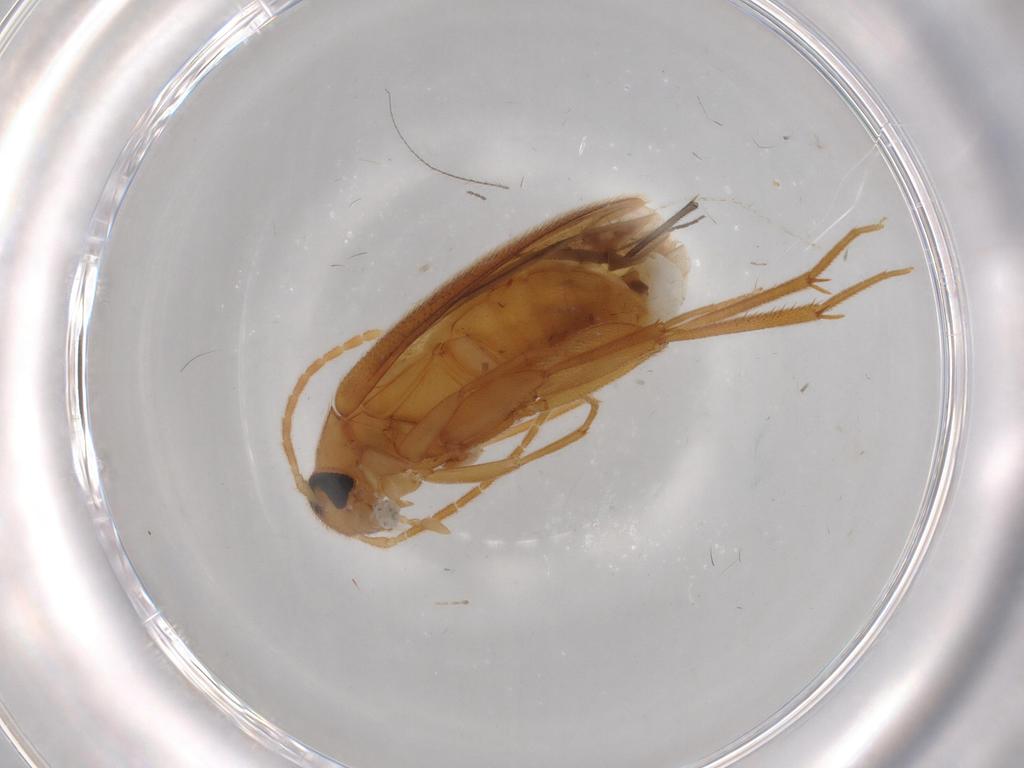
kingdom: Animalia
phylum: Arthropoda
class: Insecta
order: Coleoptera
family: Scraptiidae
